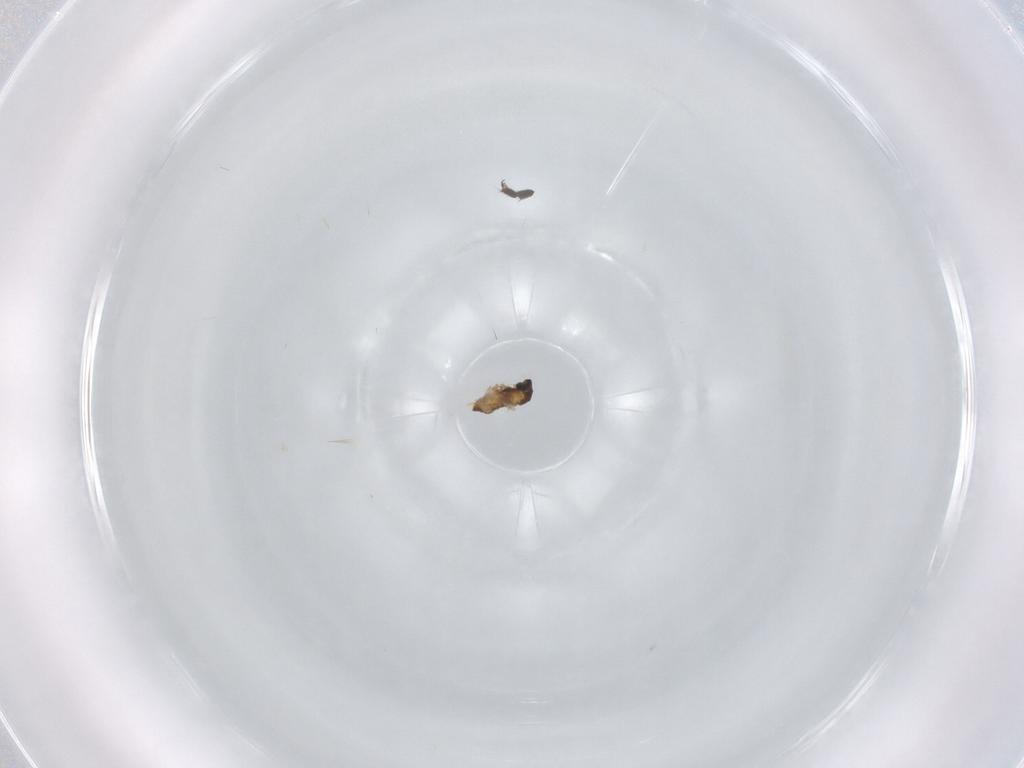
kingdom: Animalia
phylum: Arthropoda
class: Insecta
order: Diptera
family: Cecidomyiidae
